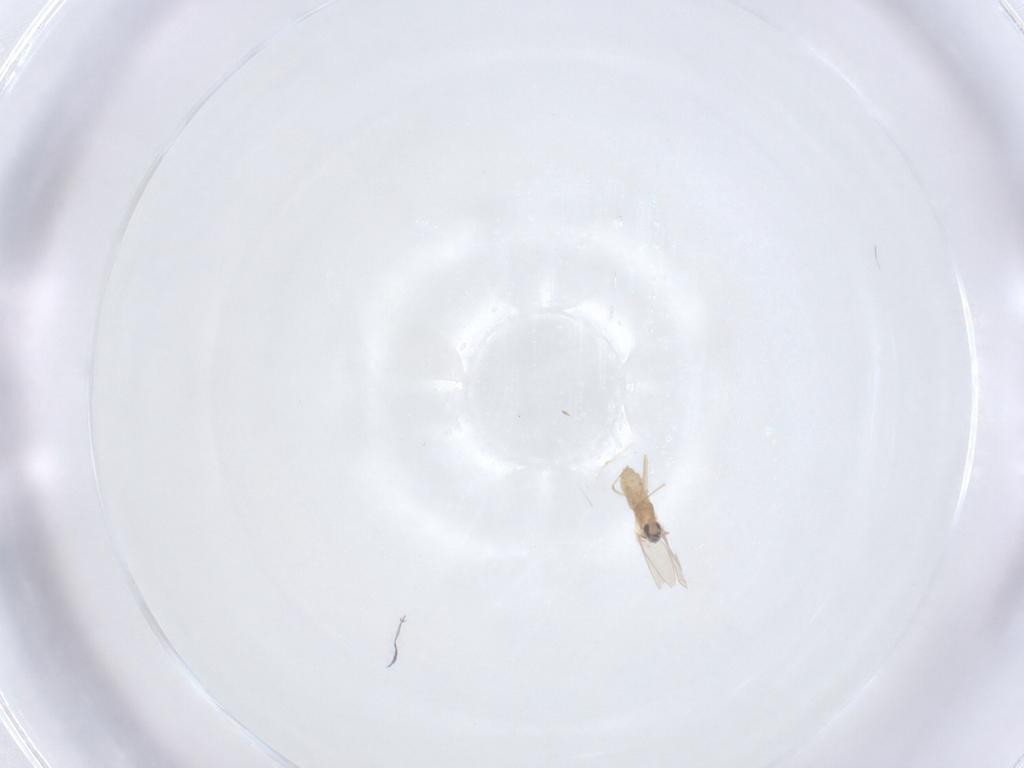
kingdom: Animalia
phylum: Arthropoda
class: Insecta
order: Diptera
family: Cecidomyiidae
